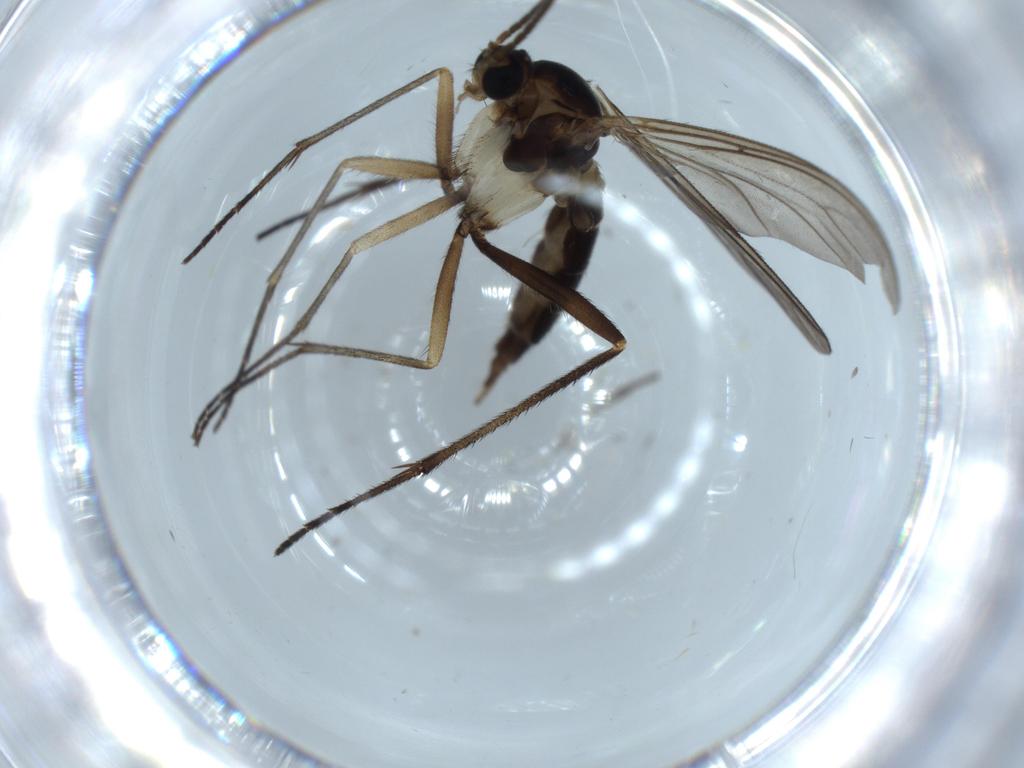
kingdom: Animalia
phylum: Arthropoda
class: Insecta
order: Diptera
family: Sciaridae
